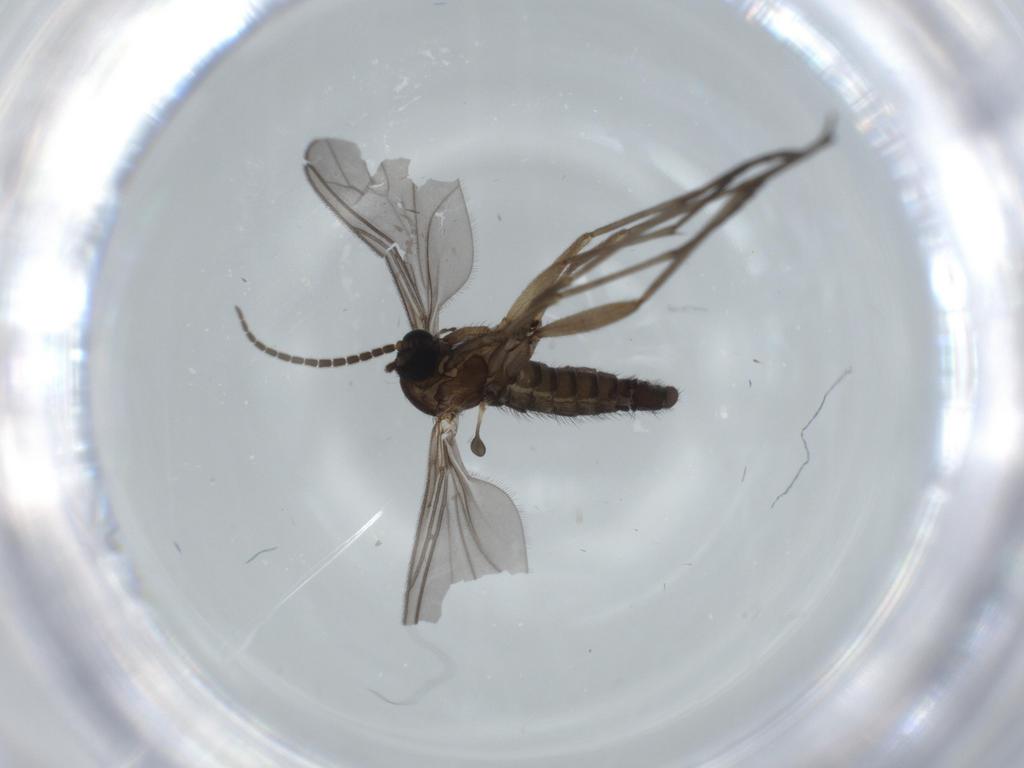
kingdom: Animalia
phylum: Arthropoda
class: Insecta
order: Diptera
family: Sciaridae
